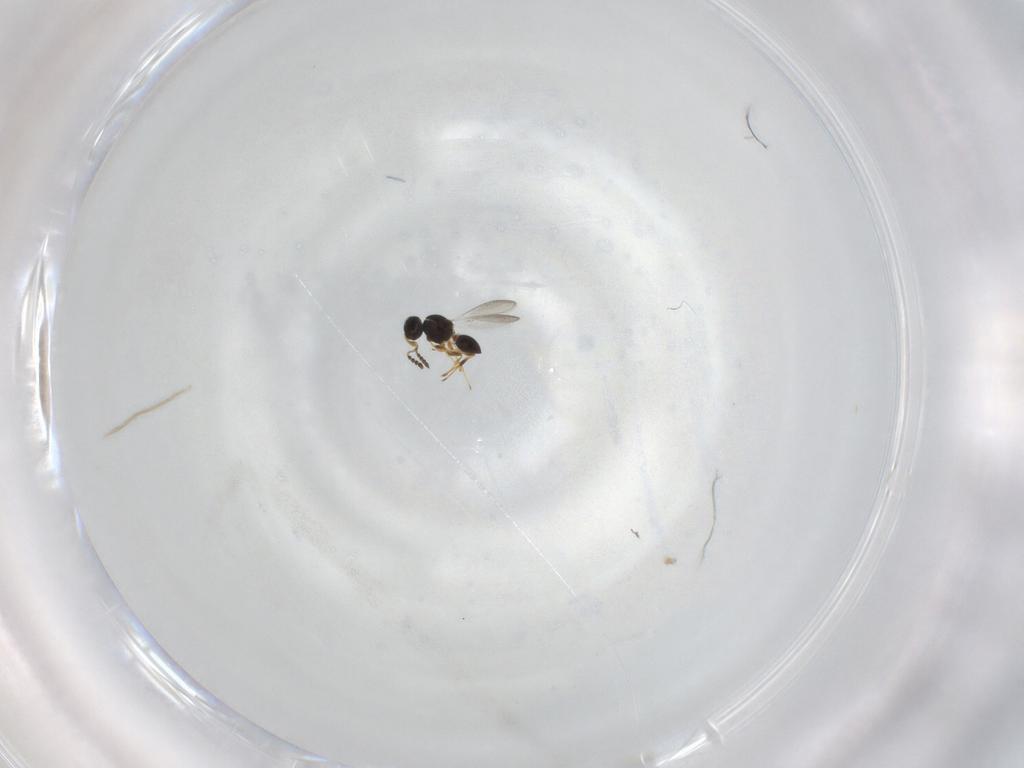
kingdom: Animalia
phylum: Arthropoda
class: Insecta
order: Hymenoptera
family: Platygastridae
